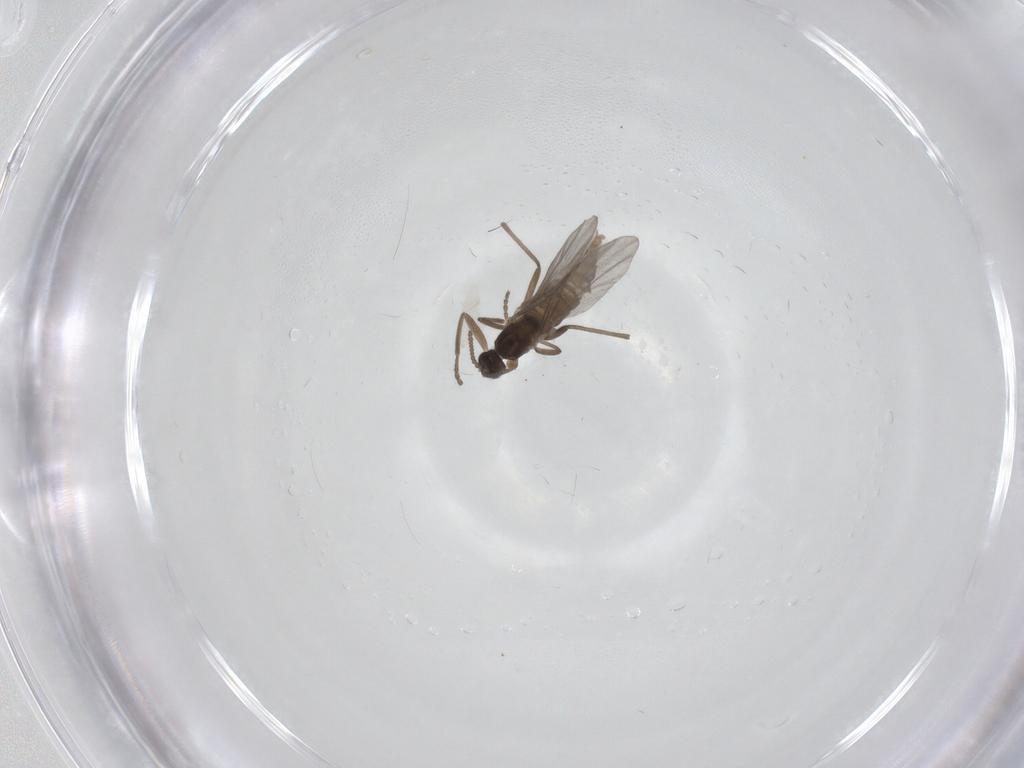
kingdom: Animalia
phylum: Arthropoda
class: Insecta
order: Diptera
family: Cecidomyiidae
